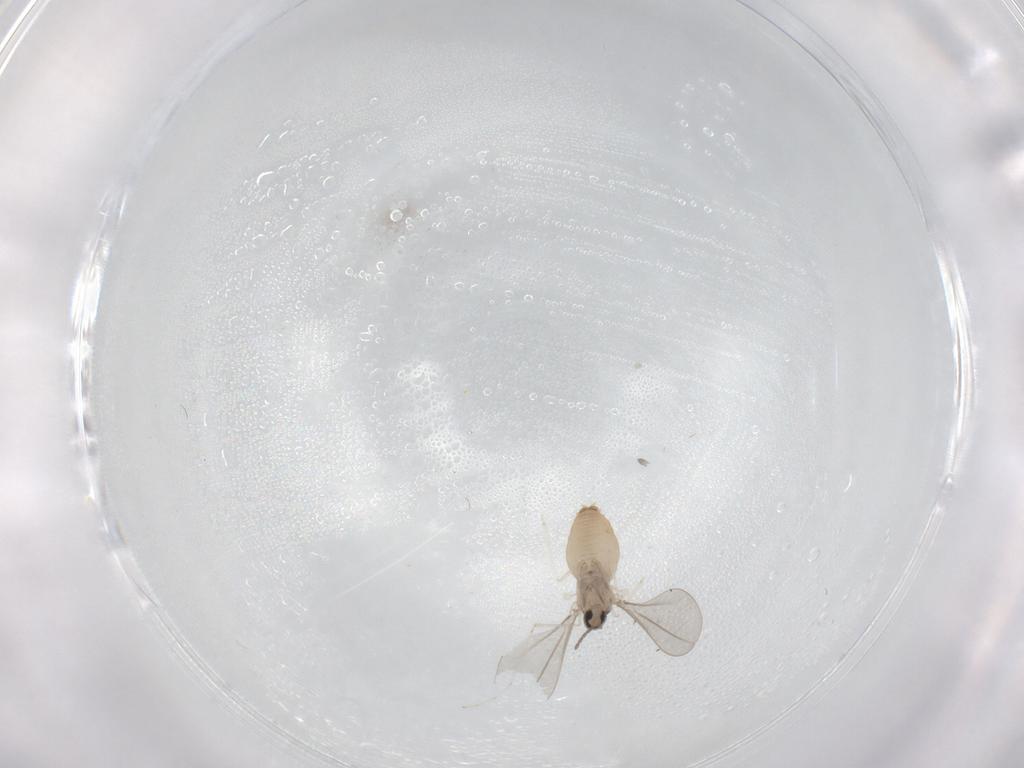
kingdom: Animalia
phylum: Arthropoda
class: Insecta
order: Diptera
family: Cecidomyiidae
